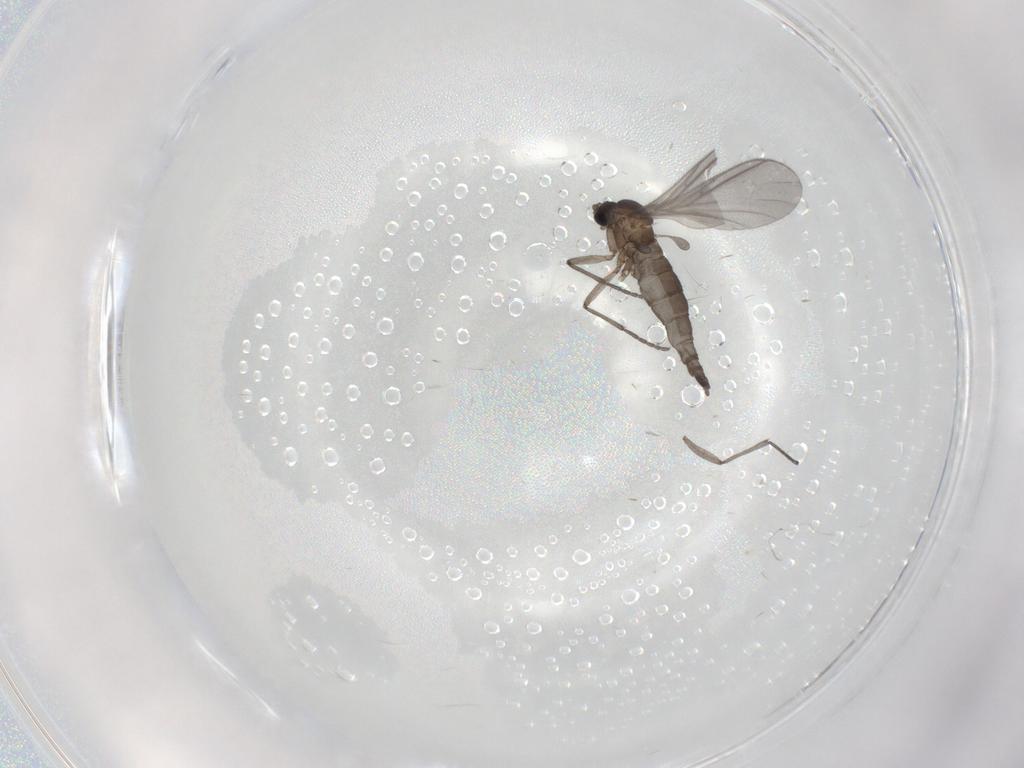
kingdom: Animalia
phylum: Arthropoda
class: Insecta
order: Diptera
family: Sciaridae
